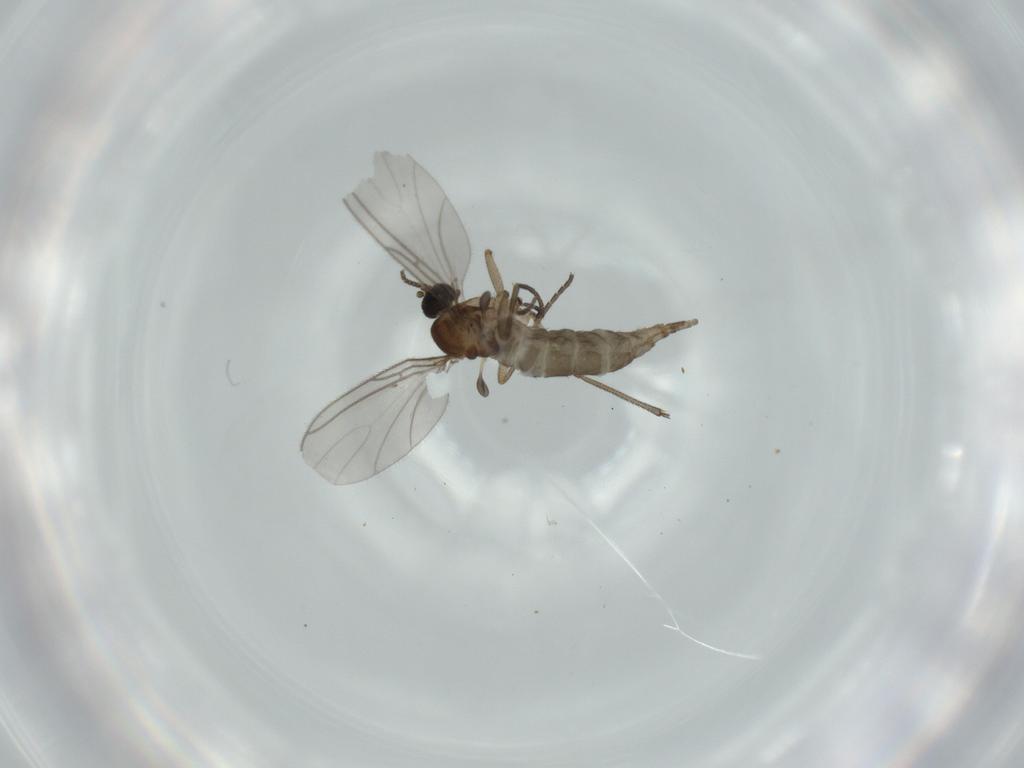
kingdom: Animalia
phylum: Arthropoda
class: Insecta
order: Diptera
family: Sciaridae
